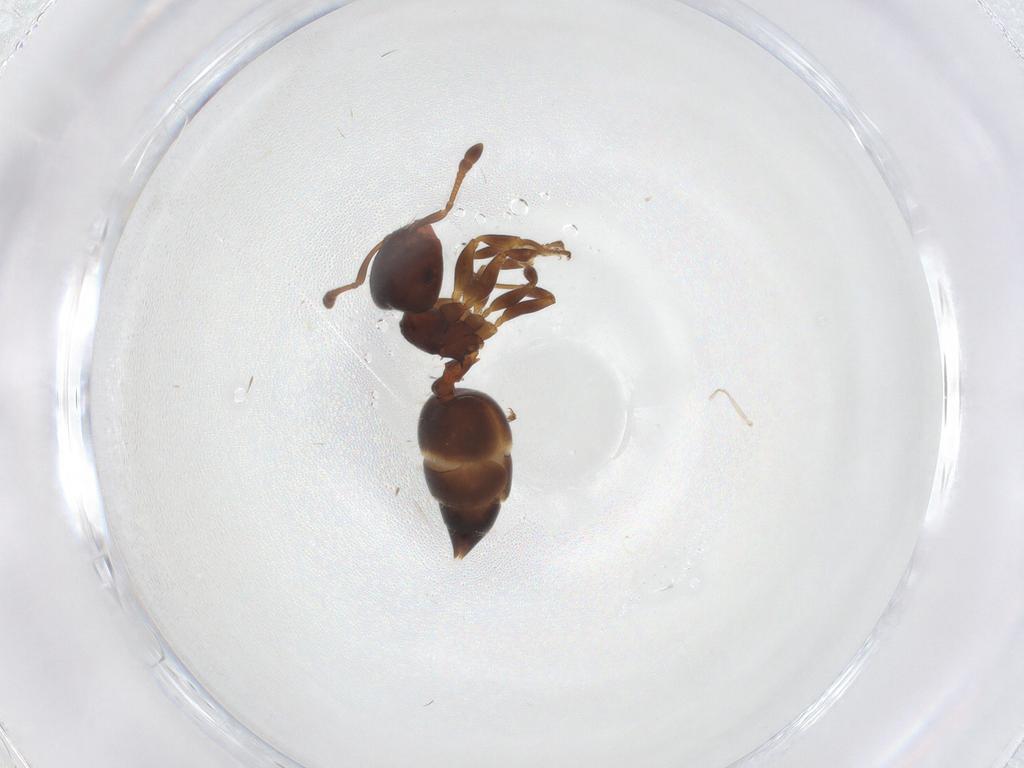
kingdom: Animalia
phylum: Arthropoda
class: Insecta
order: Hymenoptera
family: Formicidae
